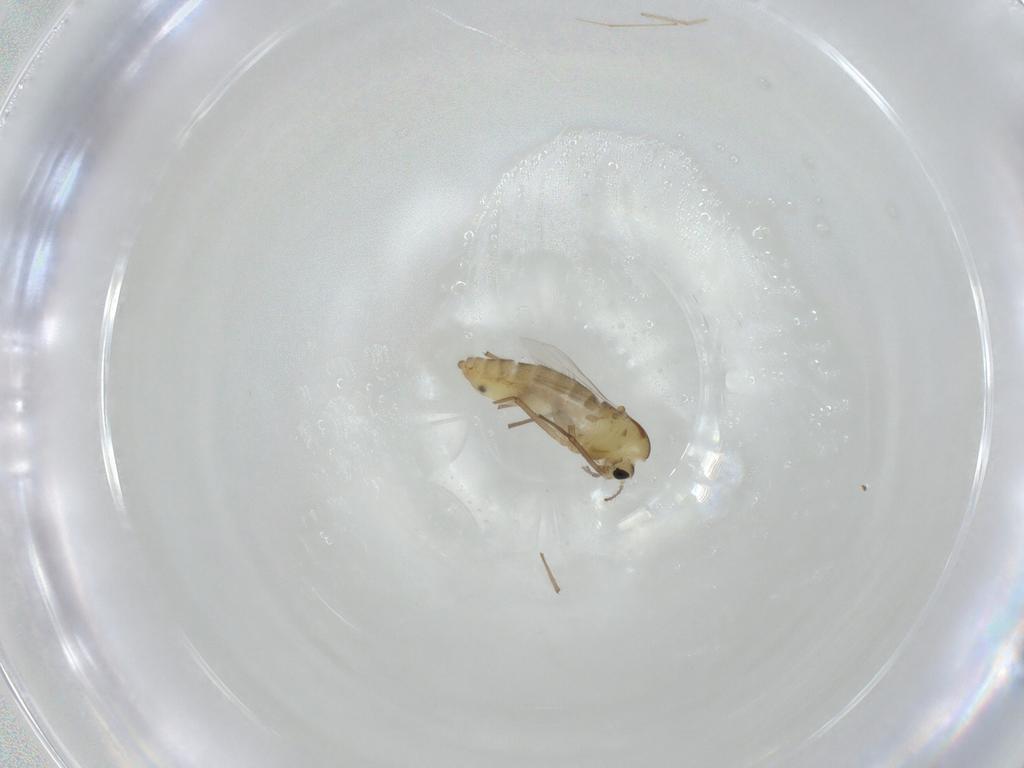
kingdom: Animalia
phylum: Arthropoda
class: Insecta
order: Diptera
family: Chironomidae
